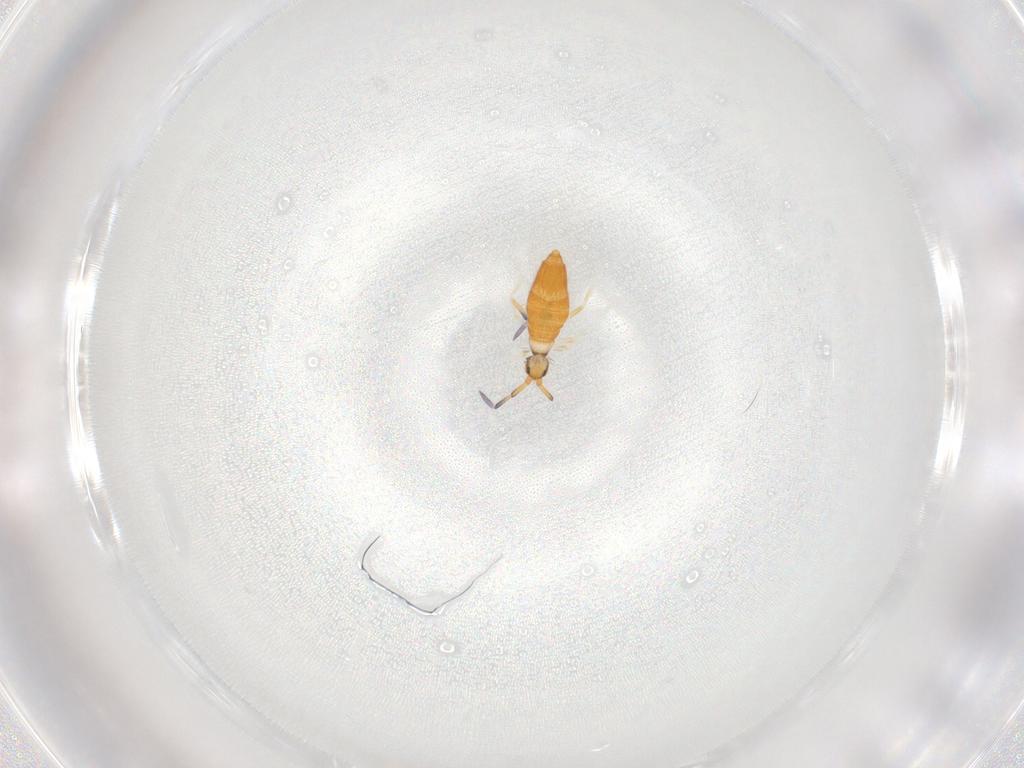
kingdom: Animalia
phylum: Arthropoda
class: Collembola
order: Entomobryomorpha
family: Entomobryidae
